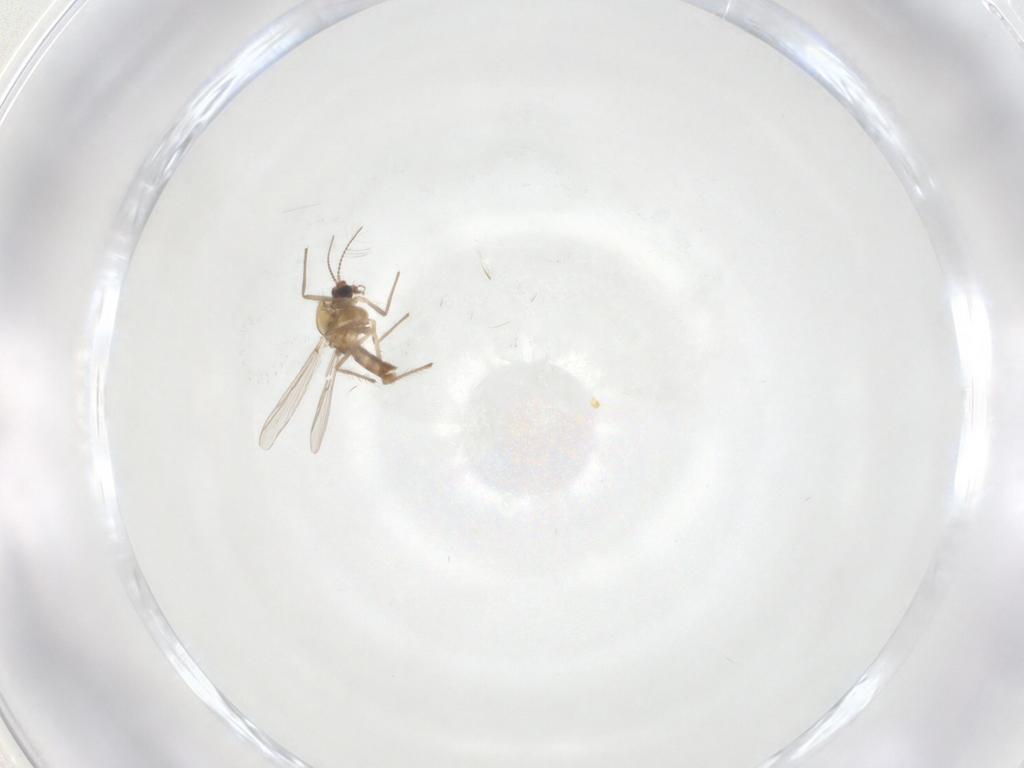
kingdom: Animalia
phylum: Arthropoda
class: Insecta
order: Diptera
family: Chironomidae
